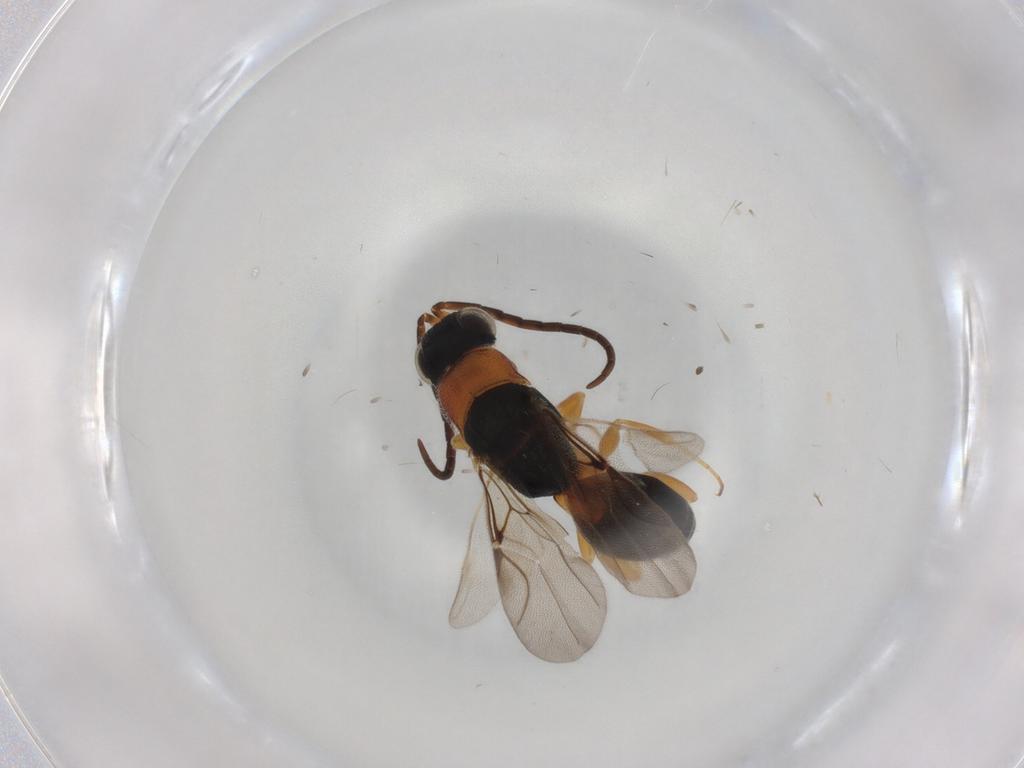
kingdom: Animalia
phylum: Arthropoda
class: Insecta
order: Hymenoptera
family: Chrysididae
